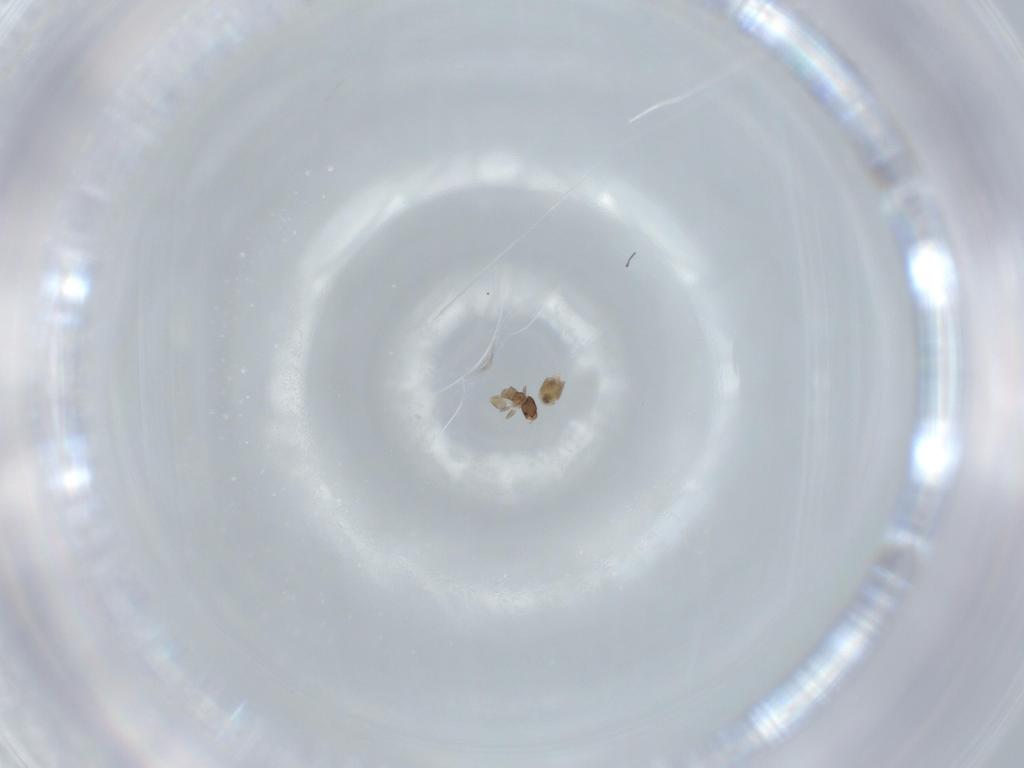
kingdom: Animalia
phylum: Arthropoda
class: Insecta
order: Psocodea
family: Liposcelididae
